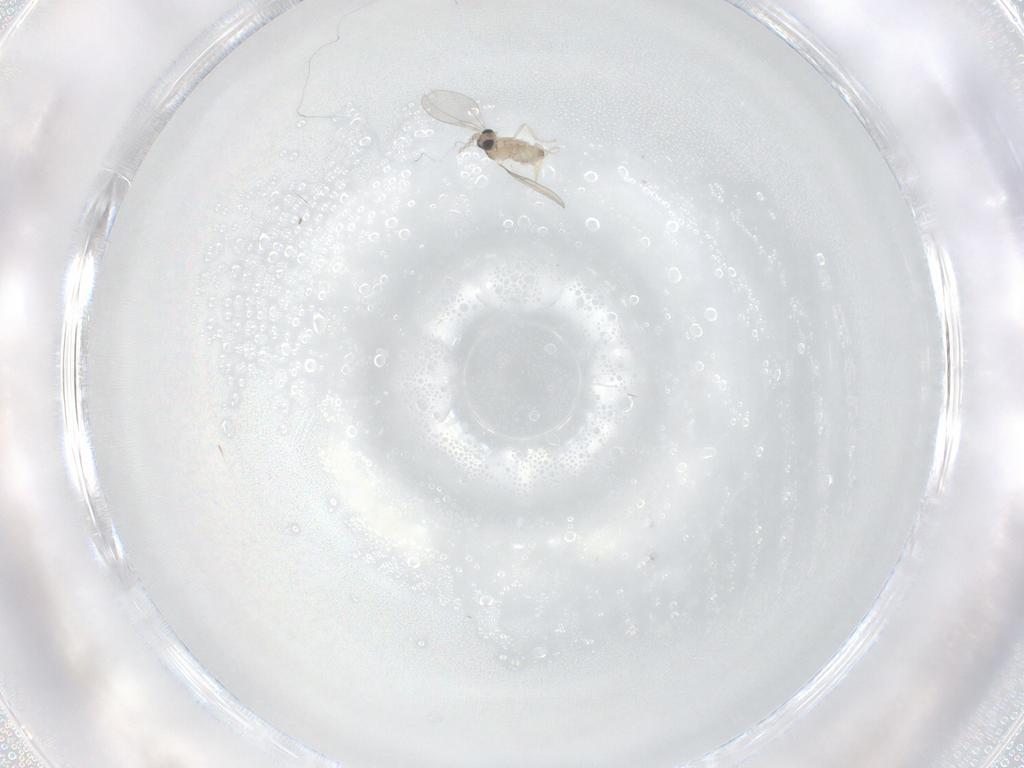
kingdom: Animalia
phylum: Arthropoda
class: Insecta
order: Diptera
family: Cecidomyiidae
